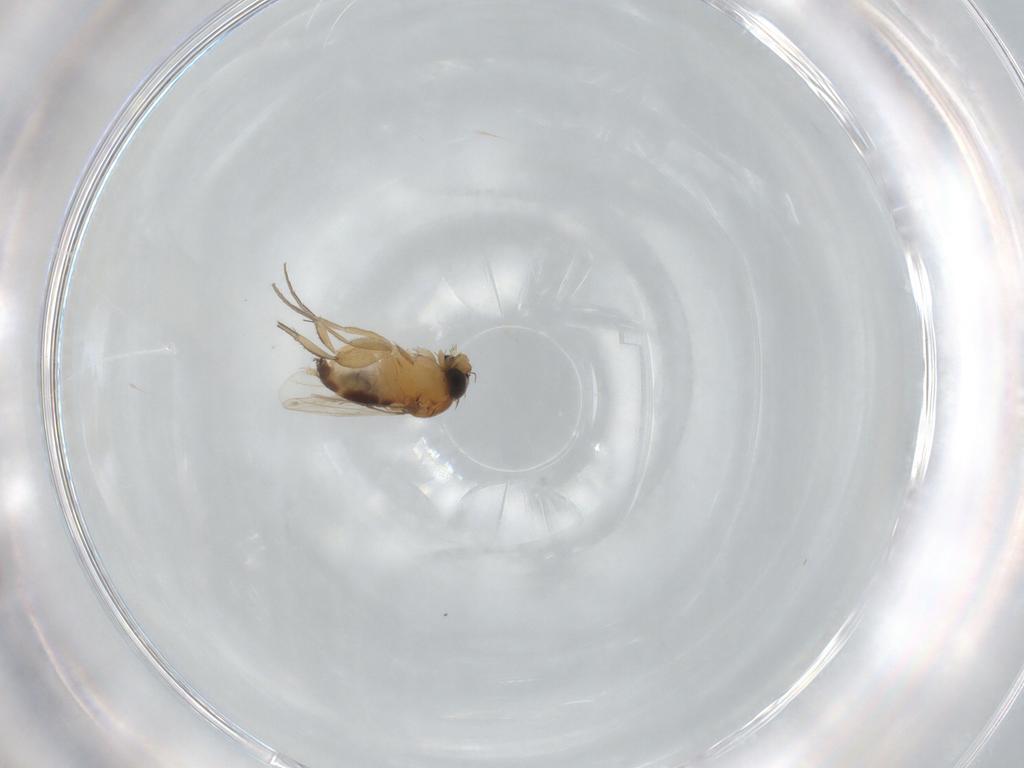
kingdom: Animalia
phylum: Arthropoda
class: Insecta
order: Diptera
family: Phoridae
